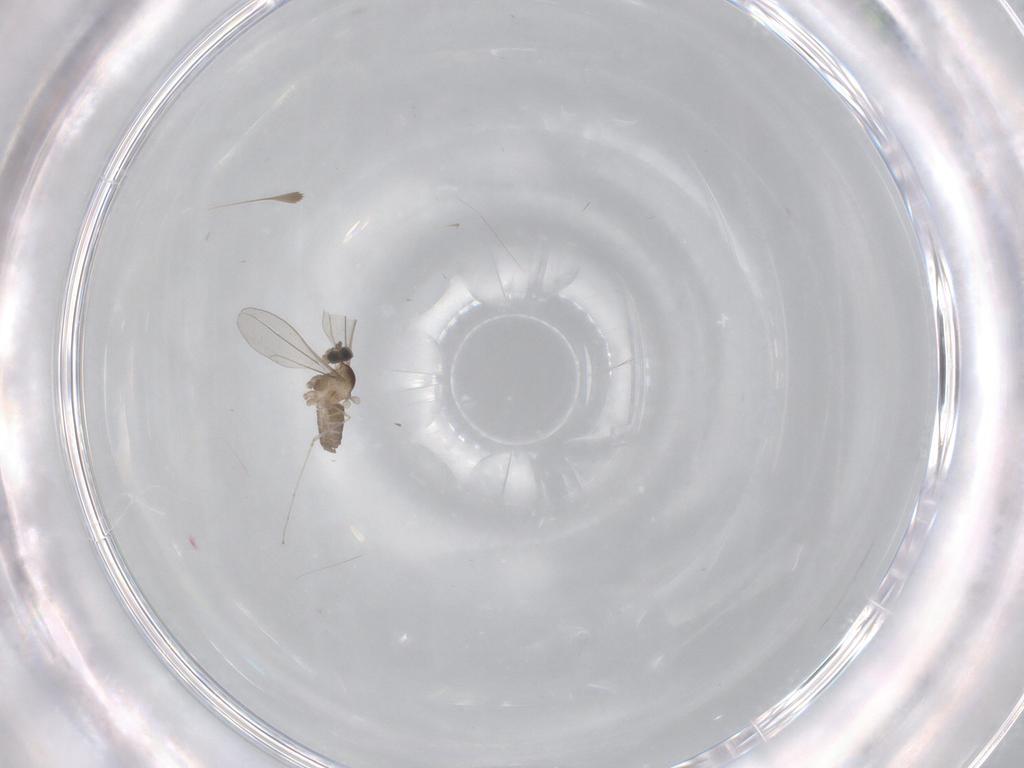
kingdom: Animalia
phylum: Arthropoda
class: Insecta
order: Diptera
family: Cecidomyiidae
